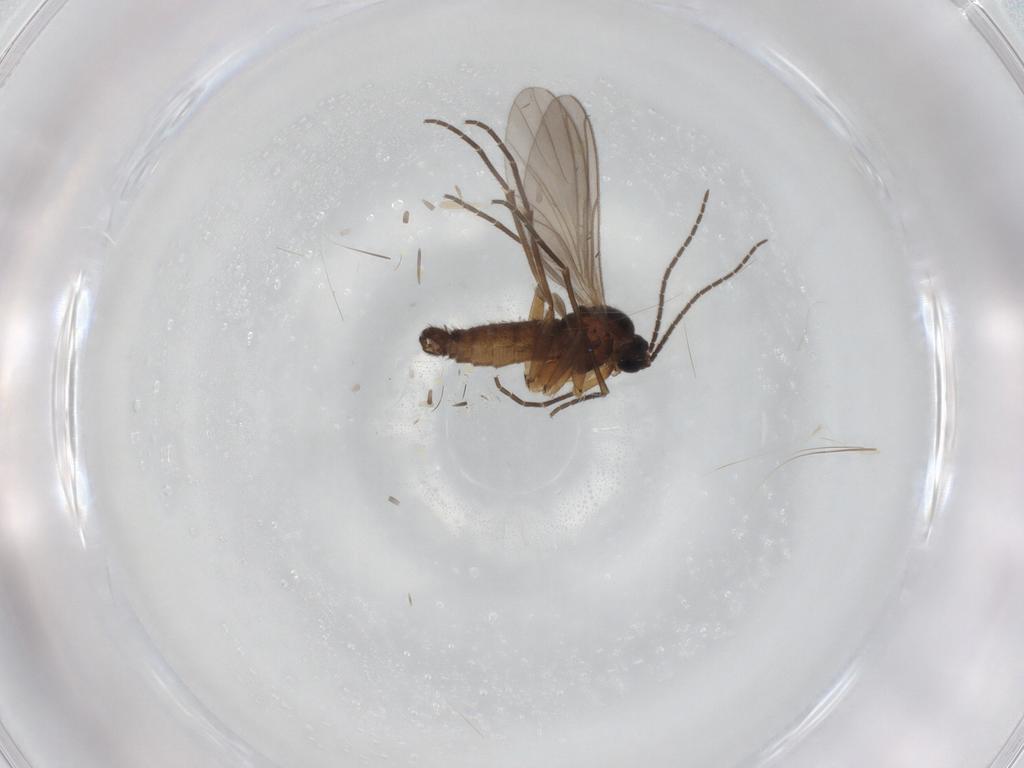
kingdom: Animalia
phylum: Arthropoda
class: Insecta
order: Diptera
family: Sciaridae
